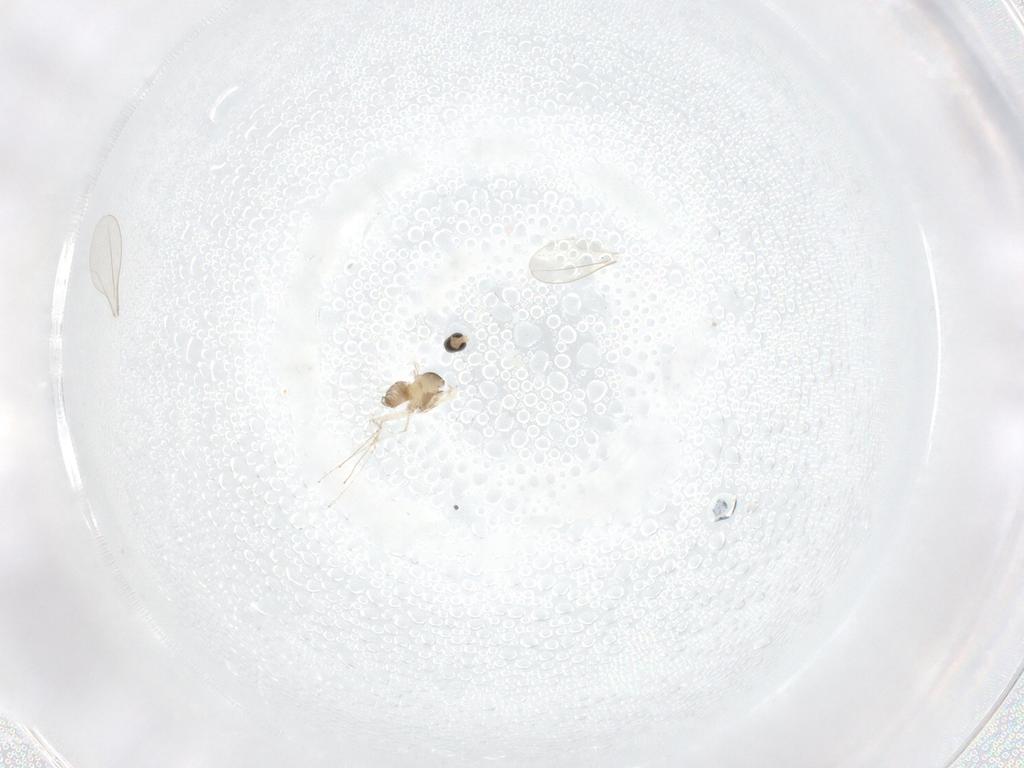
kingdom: Animalia
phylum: Arthropoda
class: Insecta
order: Diptera
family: Cecidomyiidae
